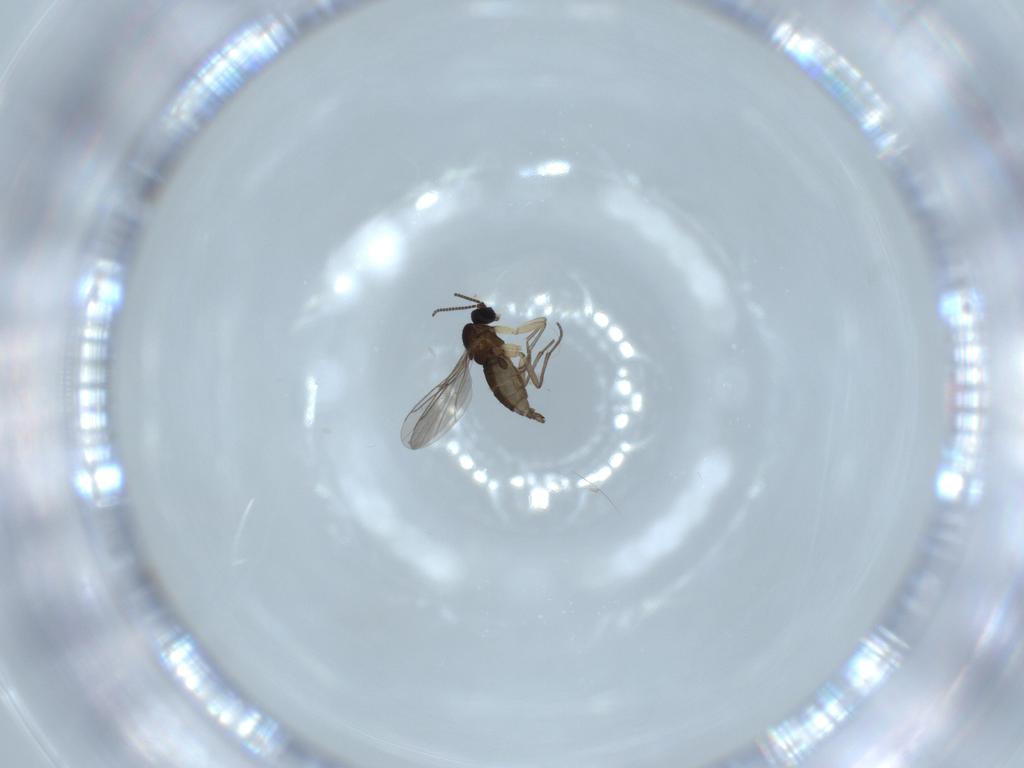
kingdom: Animalia
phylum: Arthropoda
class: Insecta
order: Diptera
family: Sciaridae
